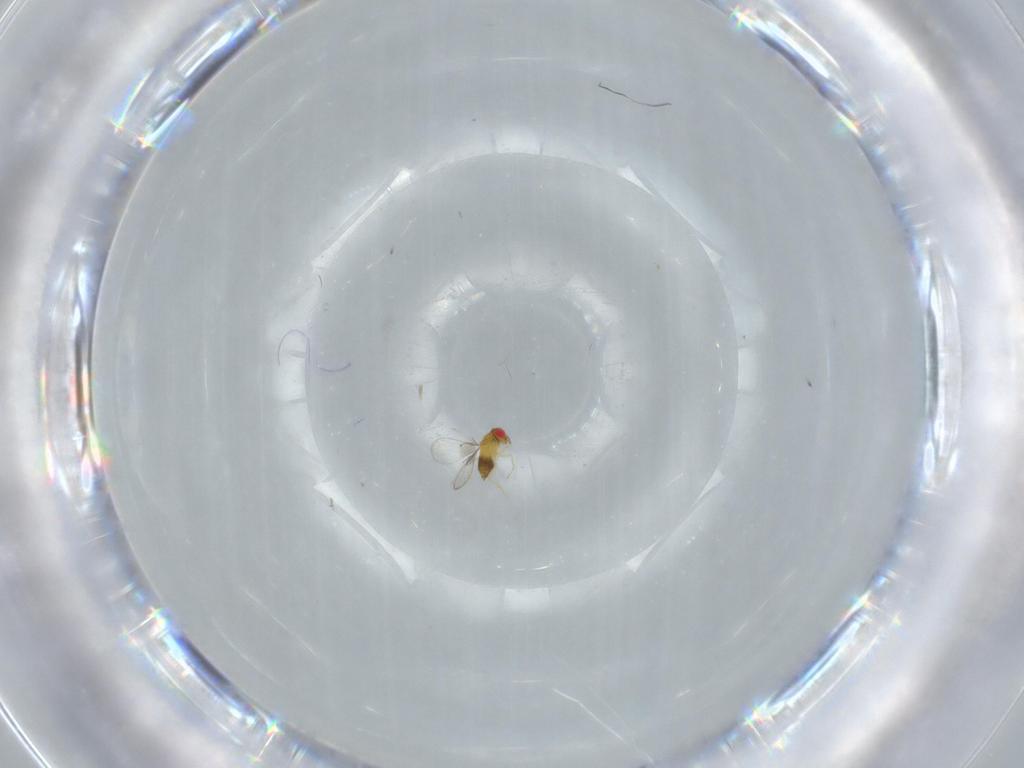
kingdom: Animalia
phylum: Arthropoda
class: Insecta
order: Hymenoptera
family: Trichogrammatidae
